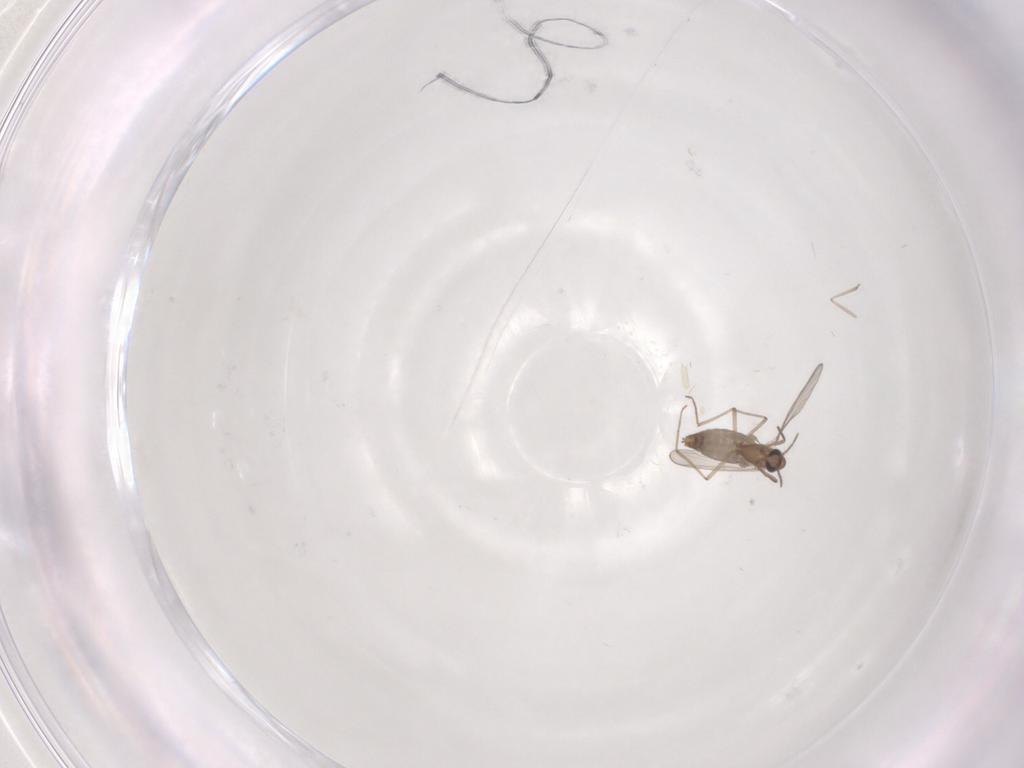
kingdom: Animalia
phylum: Arthropoda
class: Insecta
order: Diptera
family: Chironomidae
